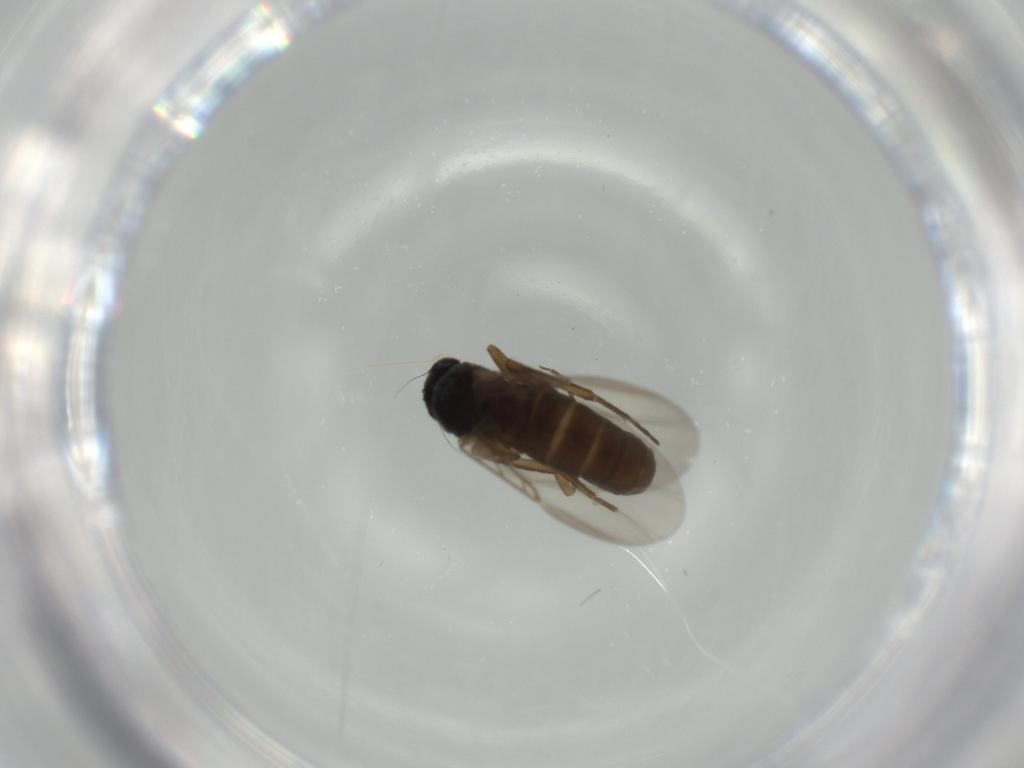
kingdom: Animalia
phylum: Arthropoda
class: Insecta
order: Diptera
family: Phoridae
